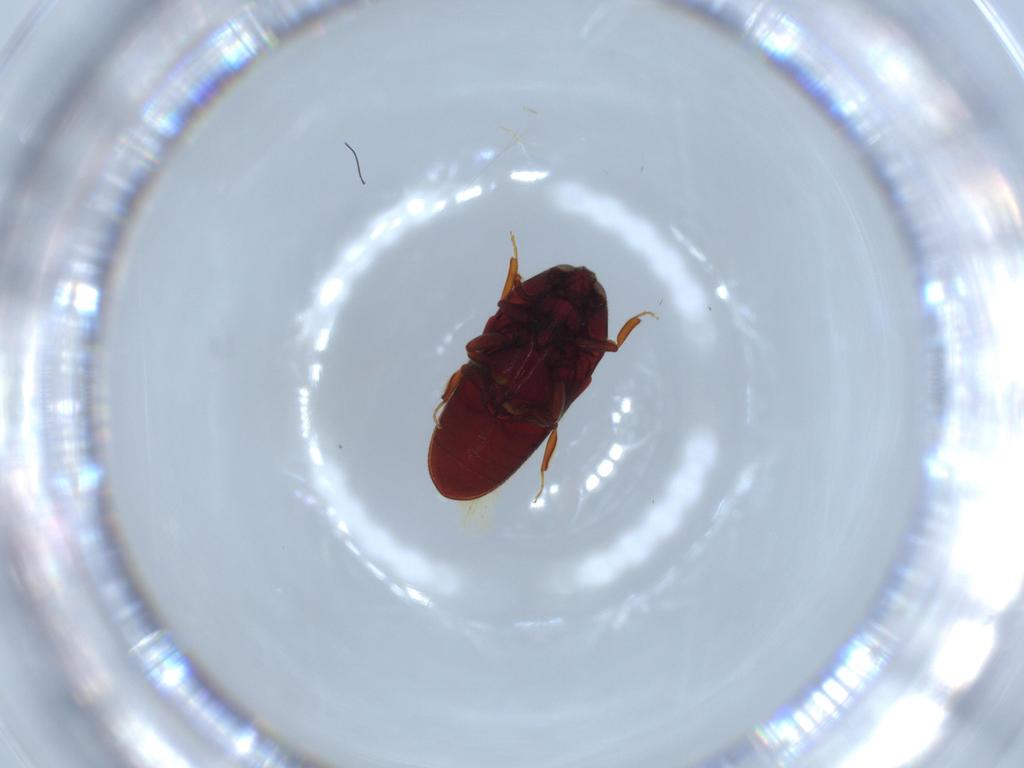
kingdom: Animalia
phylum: Arthropoda
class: Insecta
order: Coleoptera
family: Throscidae
